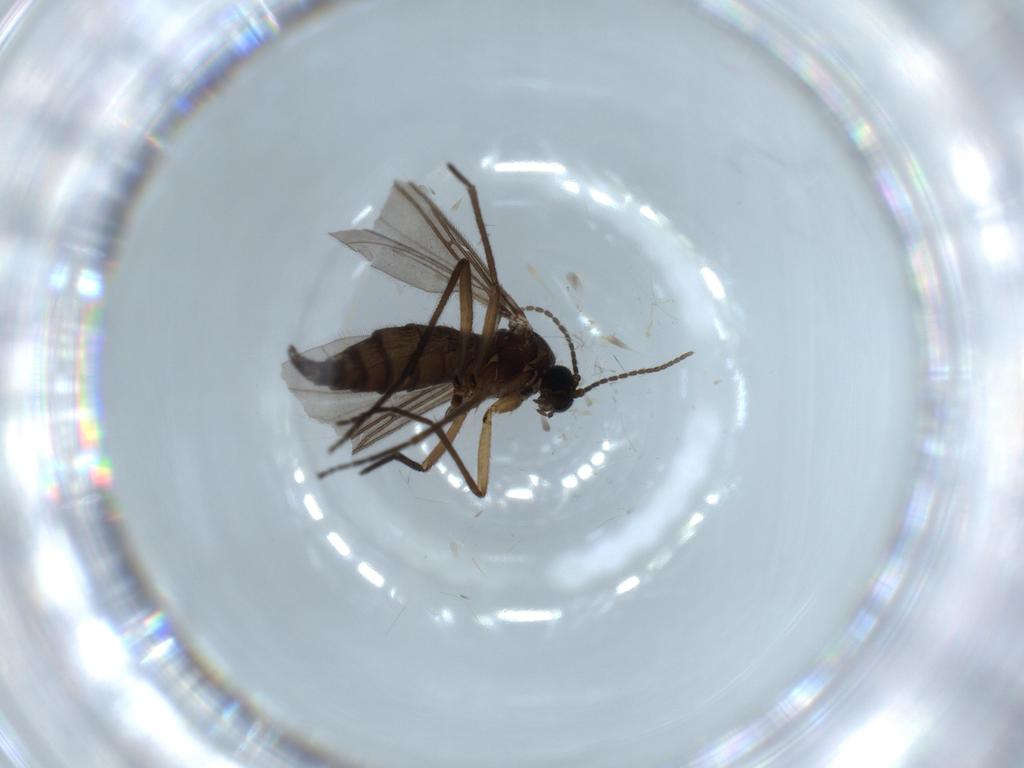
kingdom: Animalia
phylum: Arthropoda
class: Insecta
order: Diptera
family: Sciaridae
